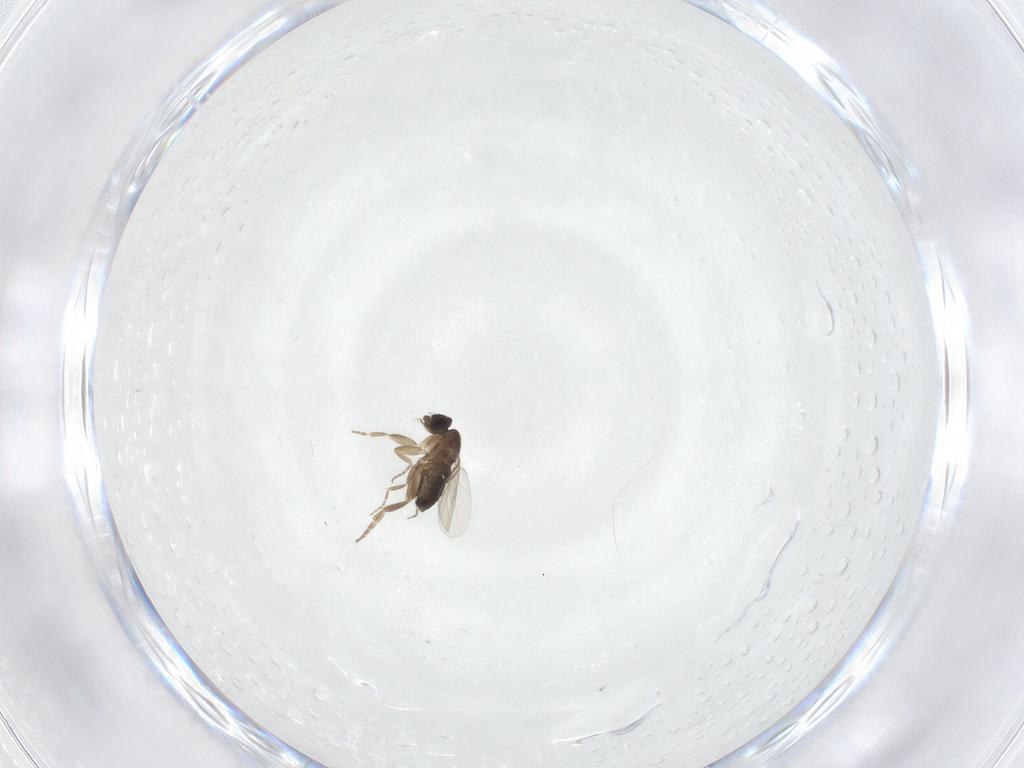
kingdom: Animalia
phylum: Arthropoda
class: Insecta
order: Diptera
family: Phoridae
